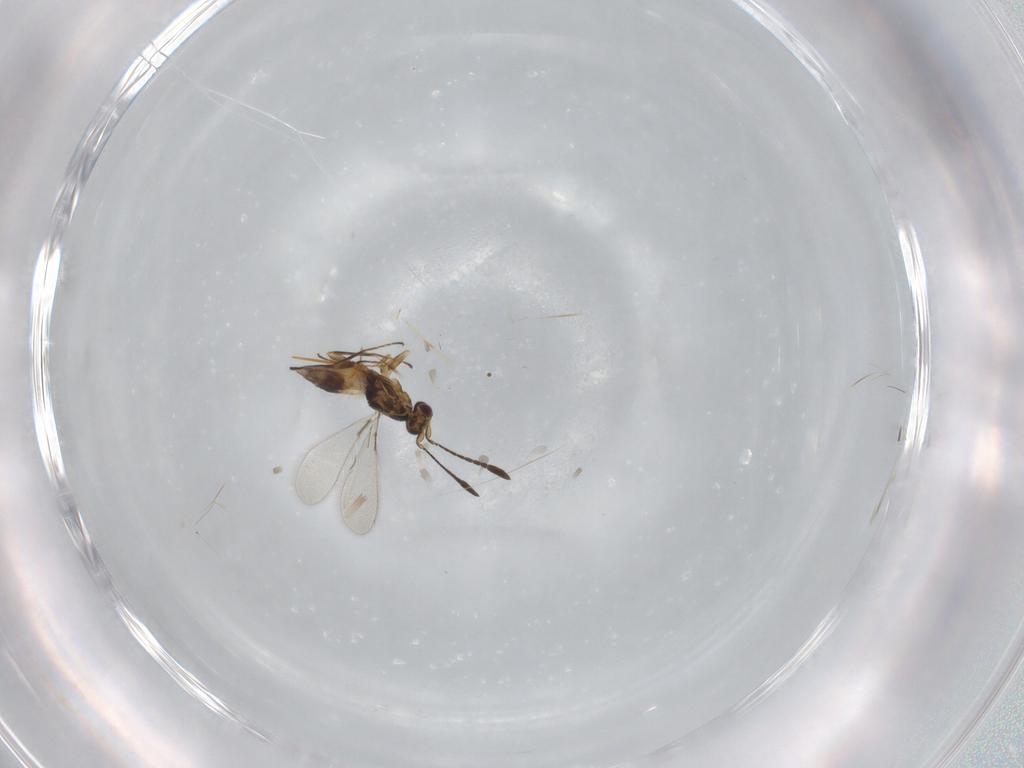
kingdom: Animalia
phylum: Arthropoda
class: Insecta
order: Hymenoptera
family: Mymaridae
